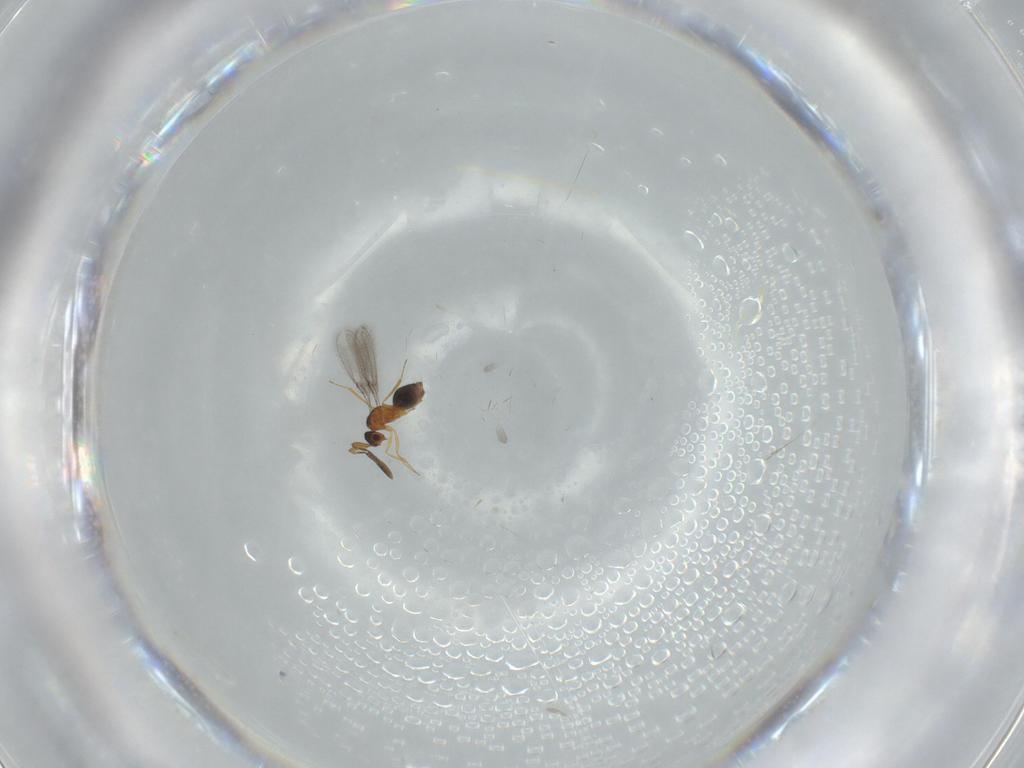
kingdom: Animalia
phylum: Arthropoda
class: Insecta
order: Hymenoptera
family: Mymaridae
